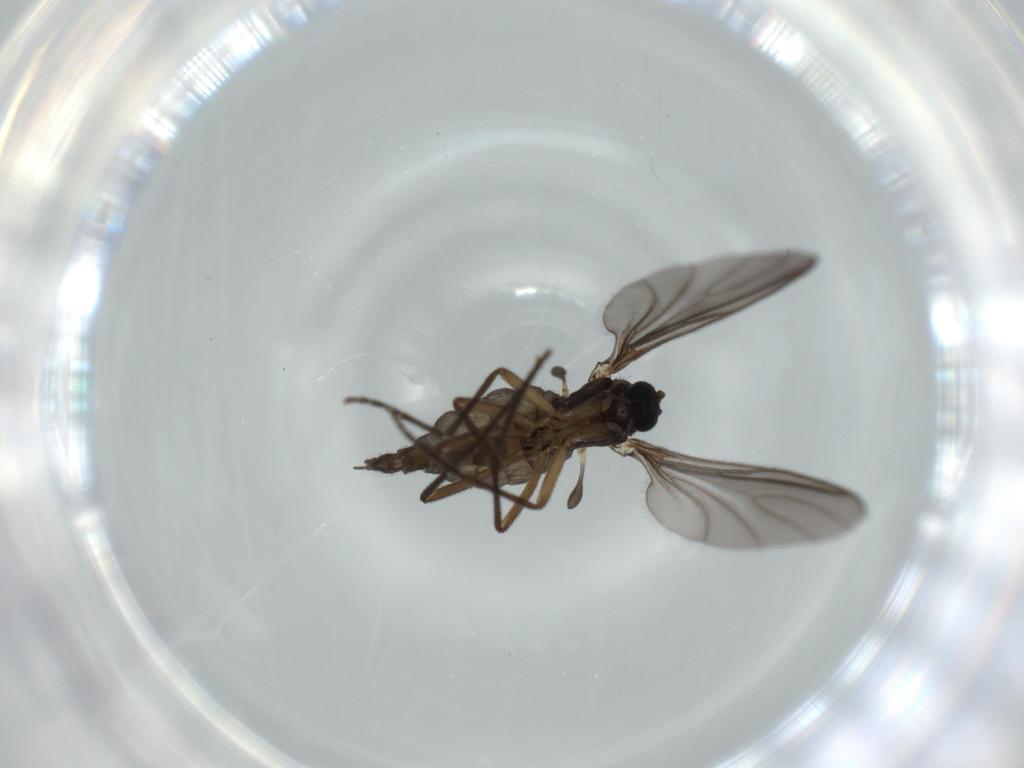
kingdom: Animalia
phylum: Arthropoda
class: Insecta
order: Diptera
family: Sciaridae
